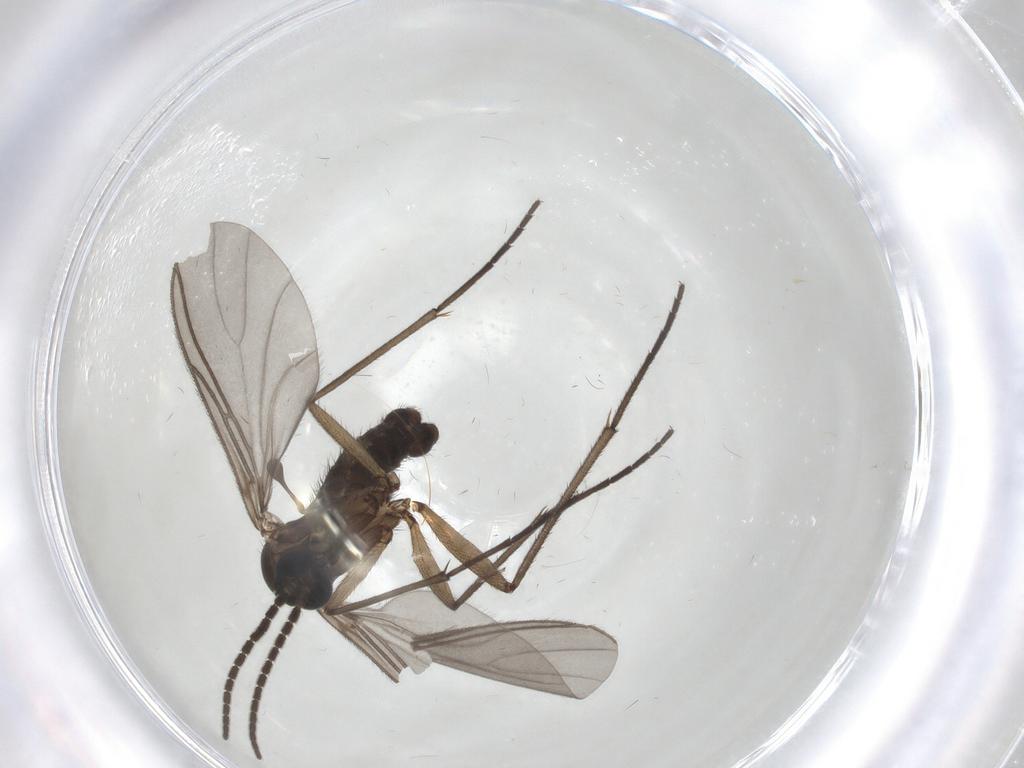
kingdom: Animalia
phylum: Arthropoda
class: Insecta
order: Diptera
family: Sciaridae
